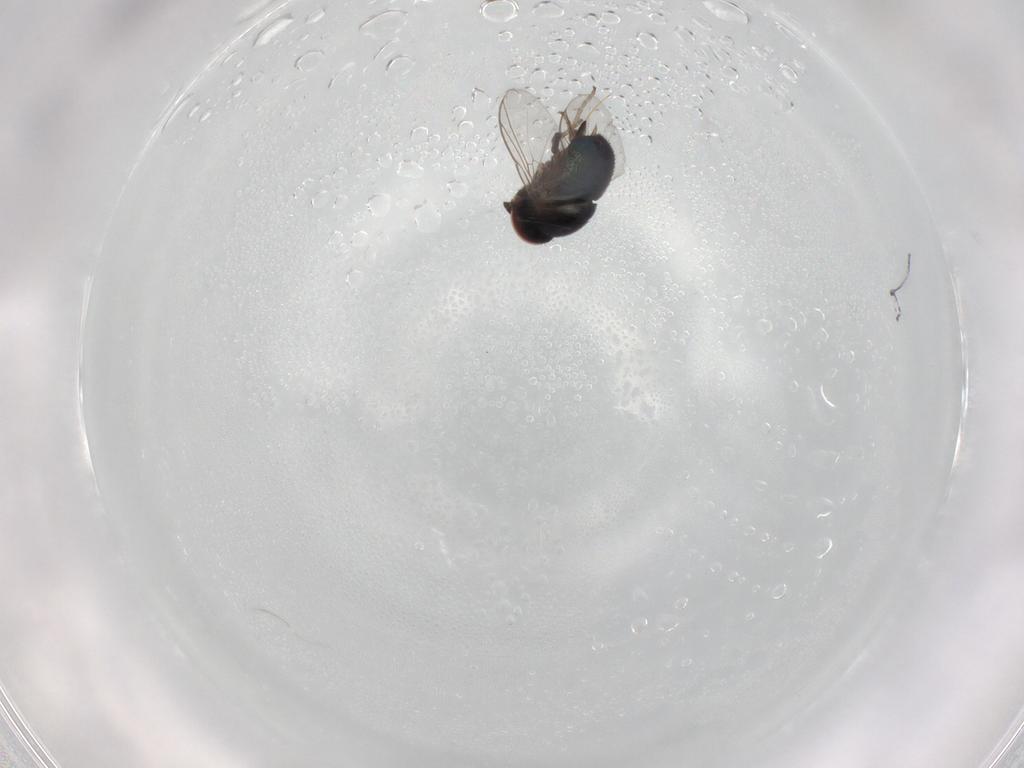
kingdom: Animalia
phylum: Arthropoda
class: Insecta
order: Diptera
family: Cryptochetidae
